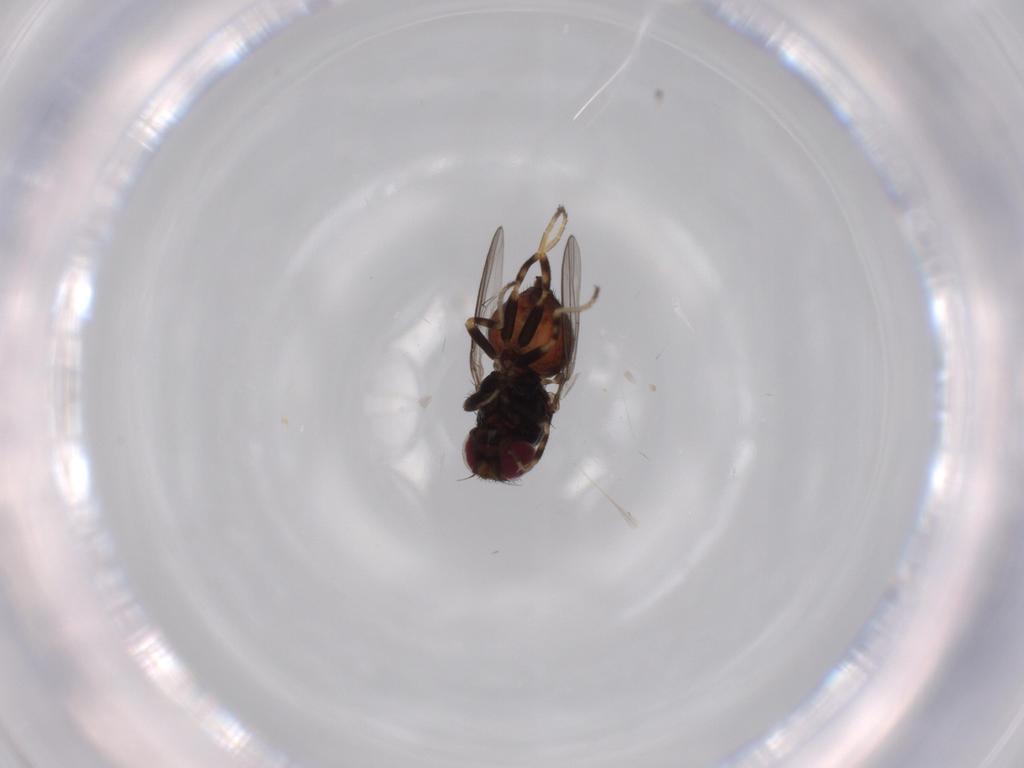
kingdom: Animalia
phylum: Arthropoda
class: Insecta
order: Diptera
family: Chloropidae
